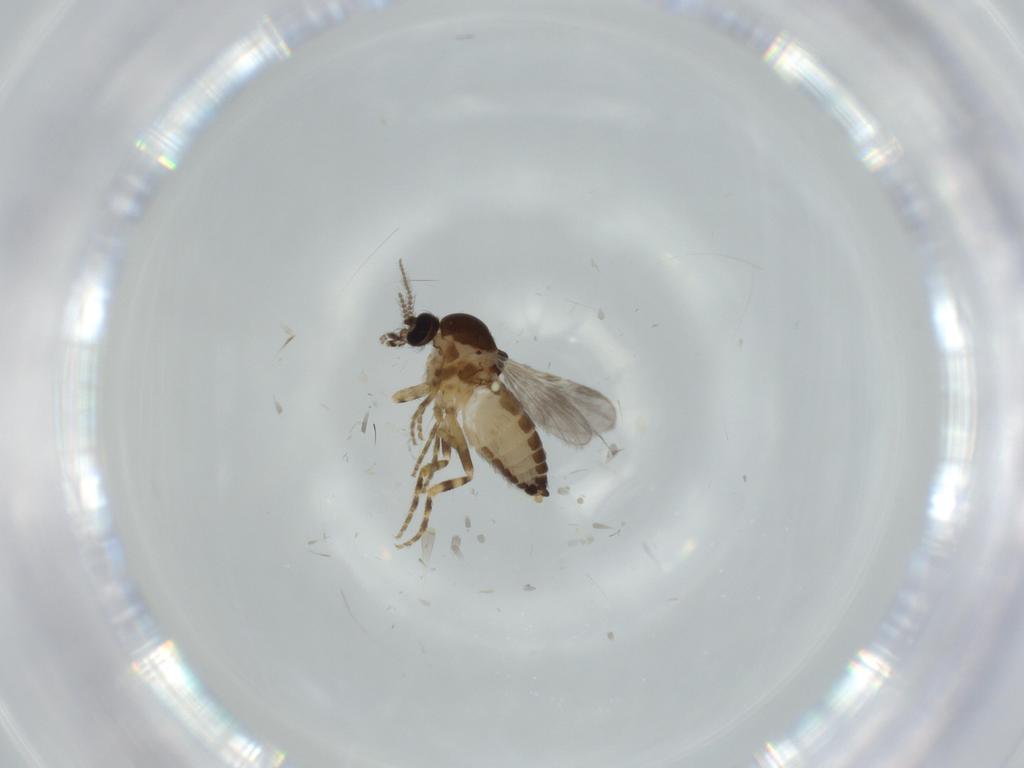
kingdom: Animalia
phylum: Arthropoda
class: Insecta
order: Diptera
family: Ceratopogonidae
